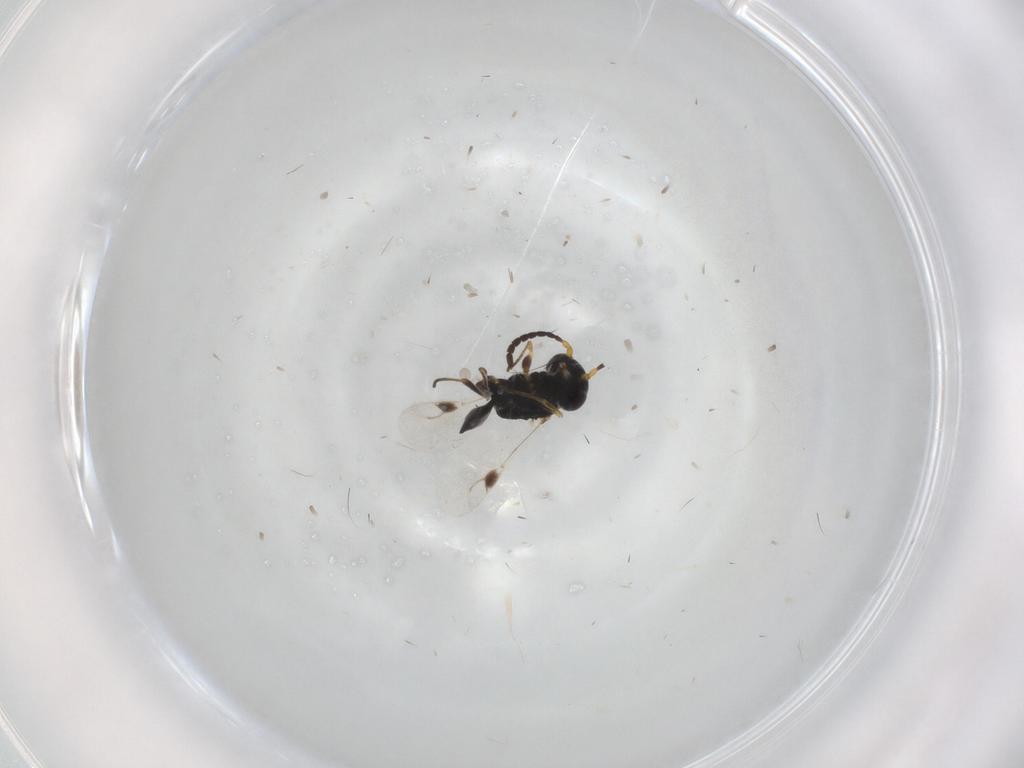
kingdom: Animalia
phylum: Arthropoda
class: Insecta
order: Hymenoptera
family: Dryinidae
